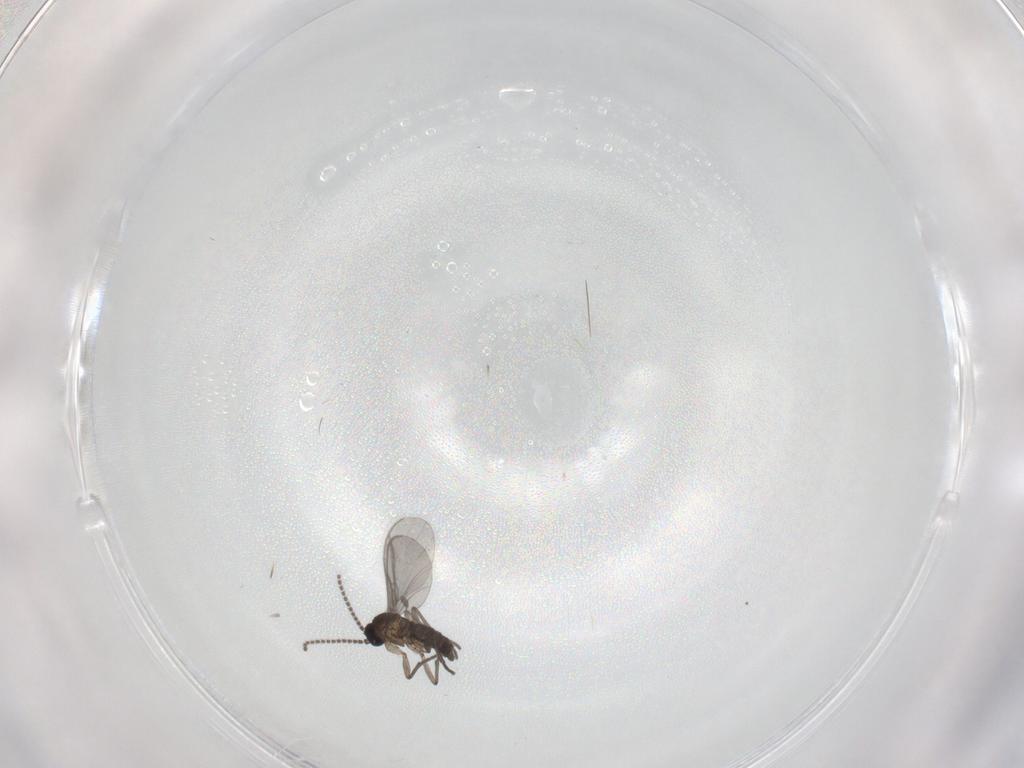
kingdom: Animalia
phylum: Arthropoda
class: Insecta
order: Diptera
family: Sciaridae
